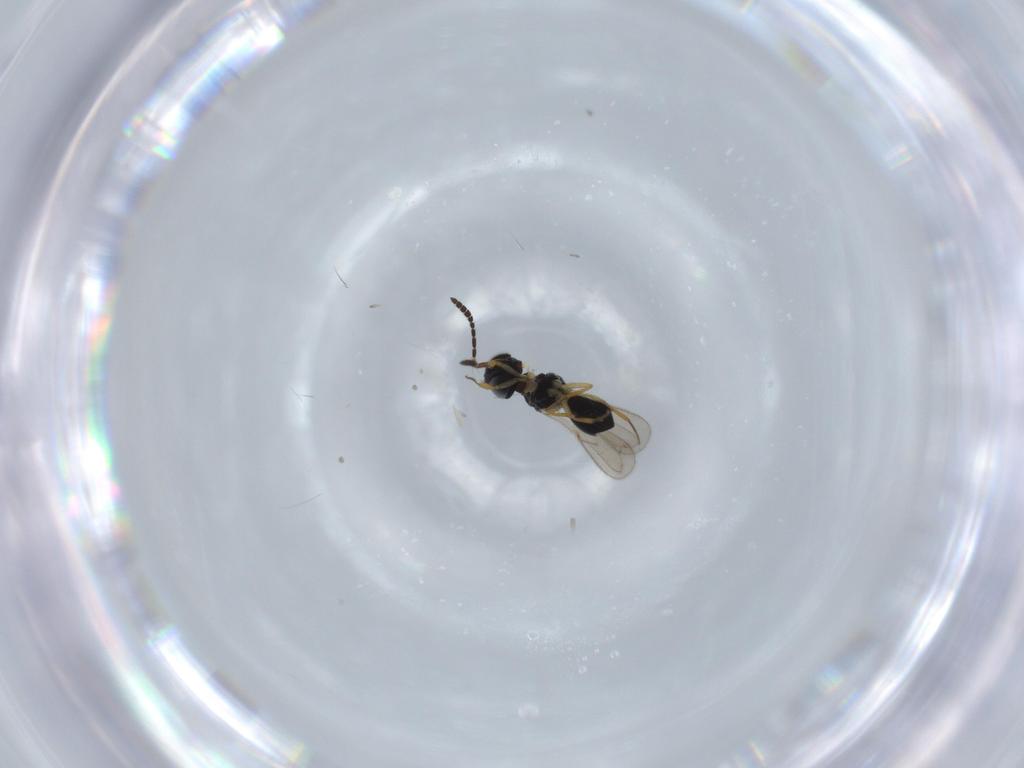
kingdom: Animalia
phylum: Arthropoda
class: Insecta
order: Hymenoptera
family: Scelionidae
